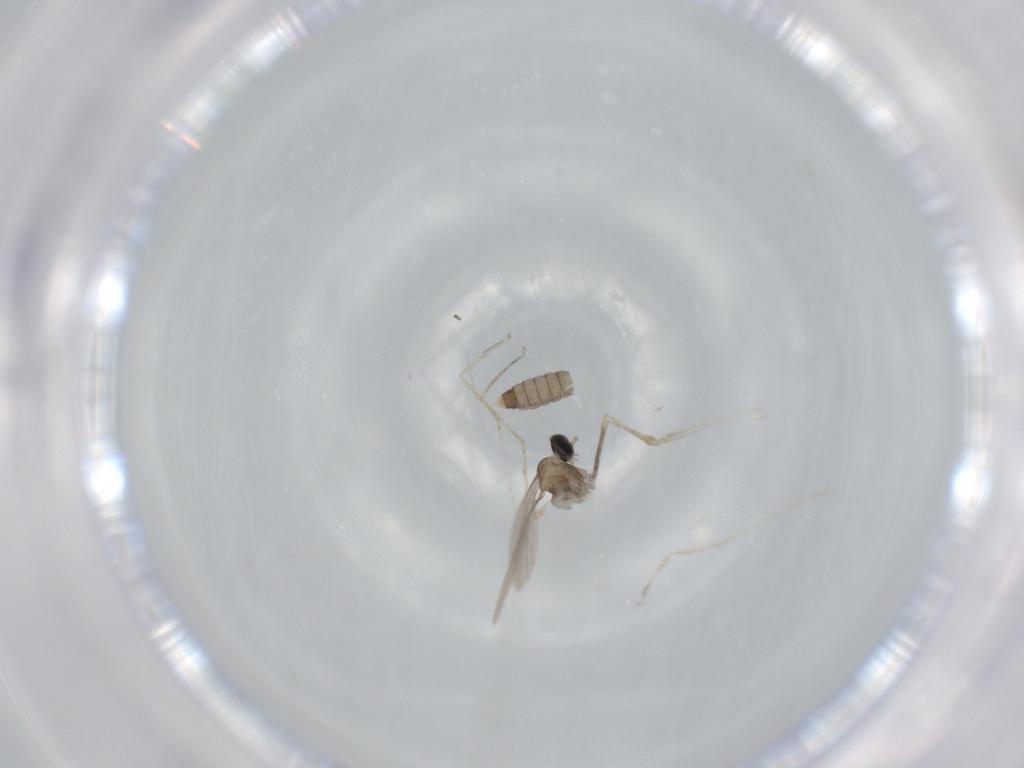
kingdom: Animalia
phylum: Arthropoda
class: Insecta
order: Diptera
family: Cecidomyiidae
